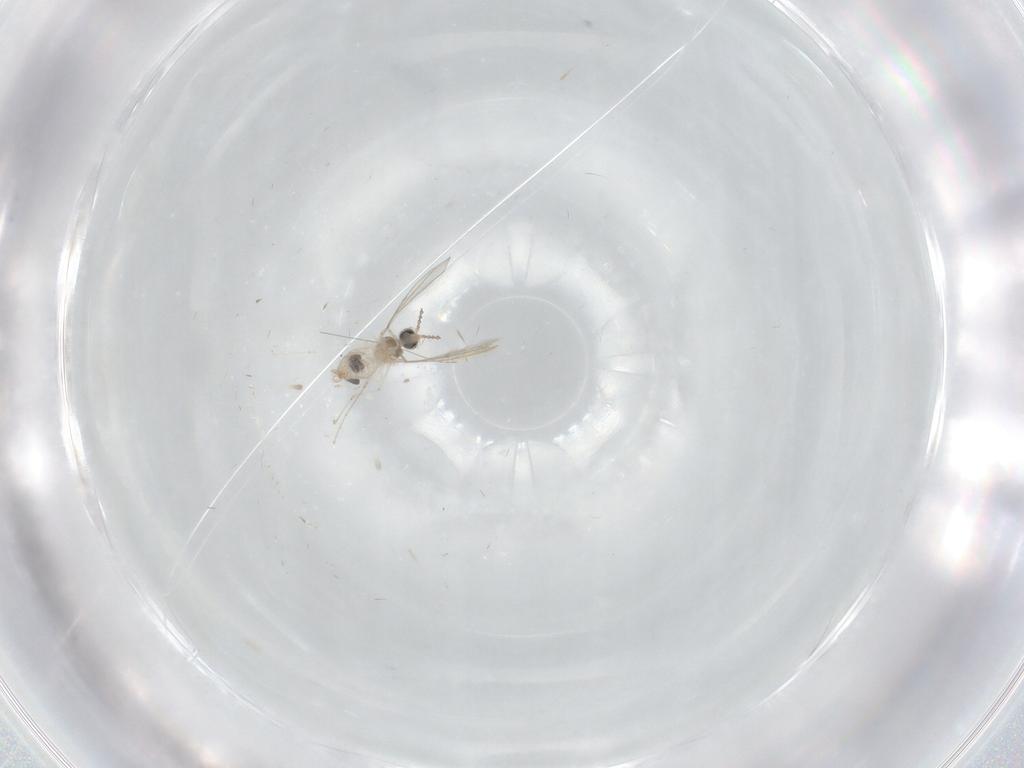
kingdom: Animalia
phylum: Arthropoda
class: Insecta
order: Diptera
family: Cecidomyiidae
